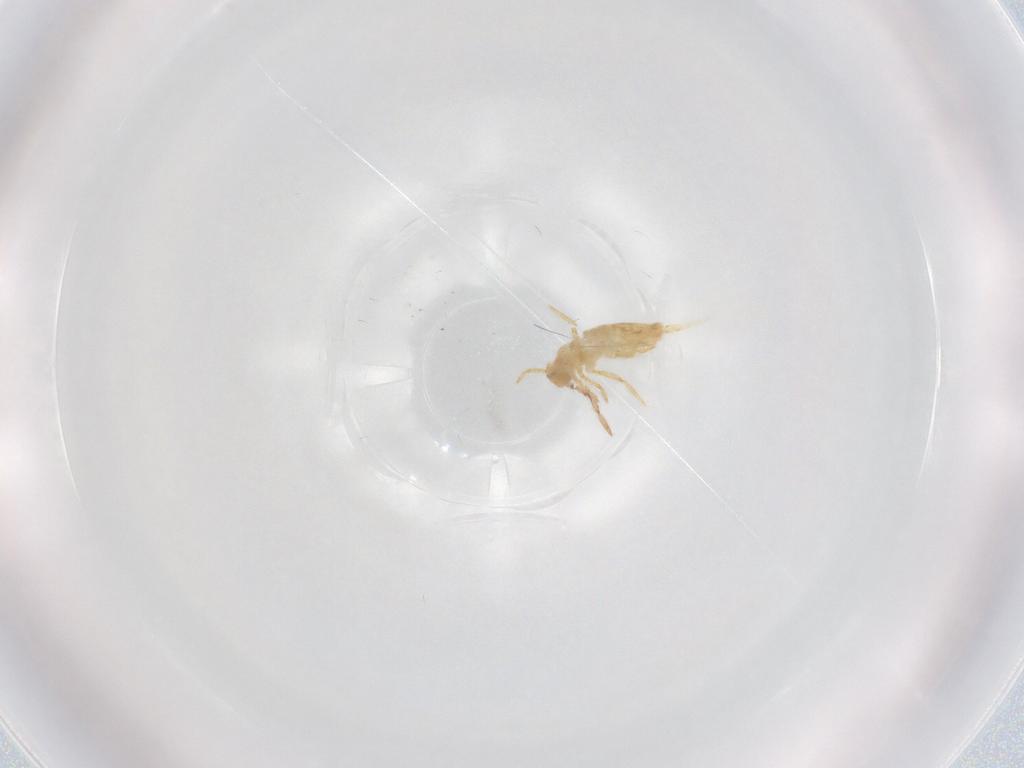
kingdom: Animalia
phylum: Arthropoda
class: Collembola
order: Entomobryomorpha
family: Entomobryidae
